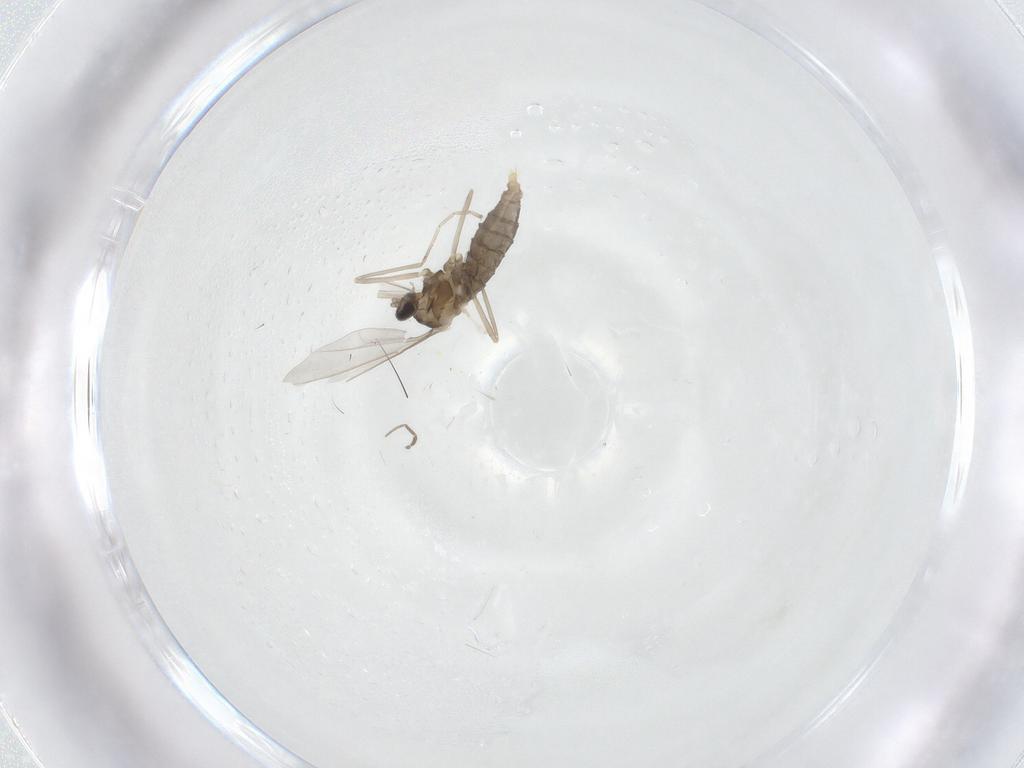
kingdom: Animalia
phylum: Arthropoda
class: Insecta
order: Diptera
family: Cecidomyiidae
